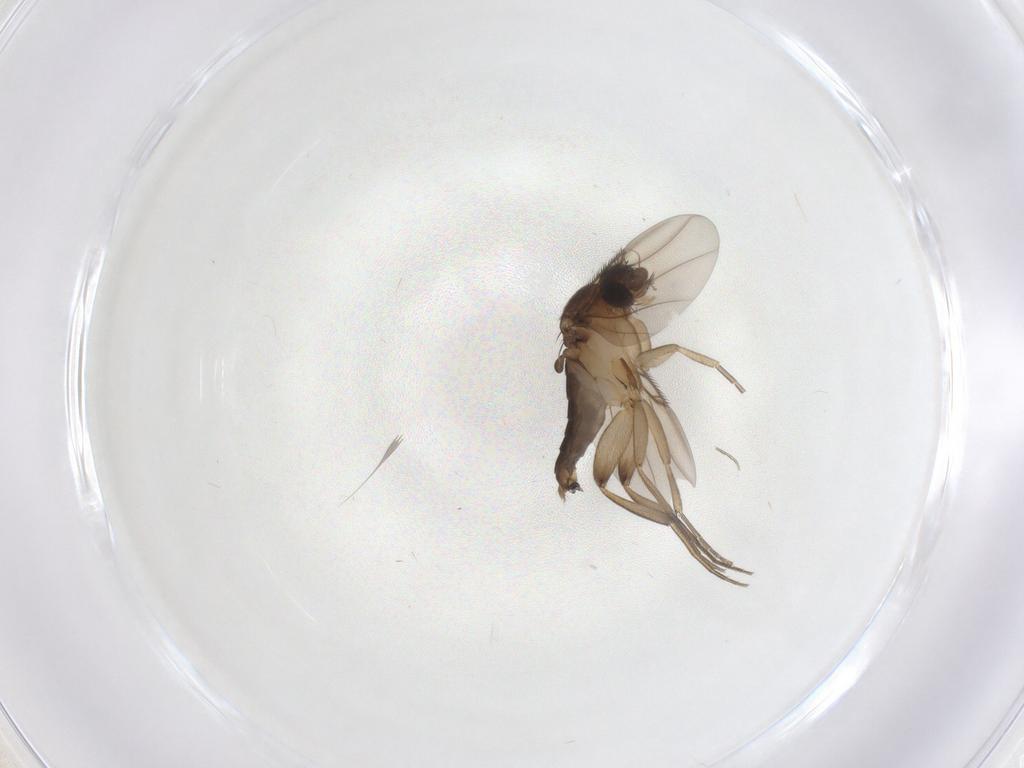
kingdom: Animalia
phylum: Arthropoda
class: Insecta
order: Diptera
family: Phoridae
